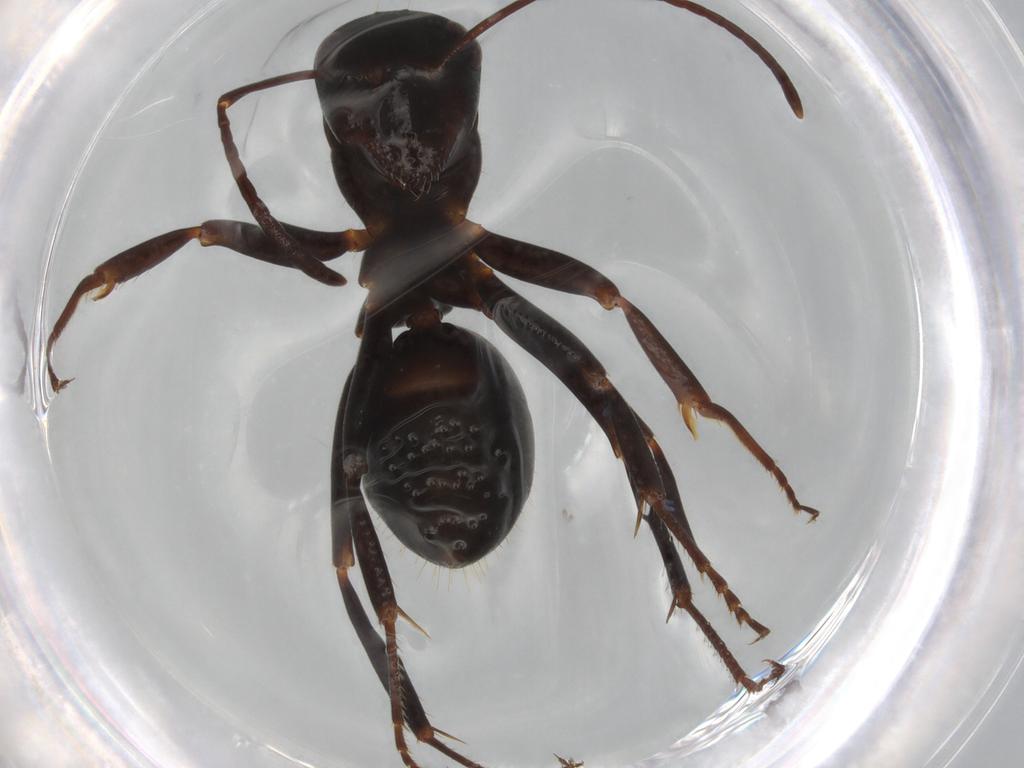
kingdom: Animalia
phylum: Arthropoda
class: Insecta
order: Hymenoptera
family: Formicidae
